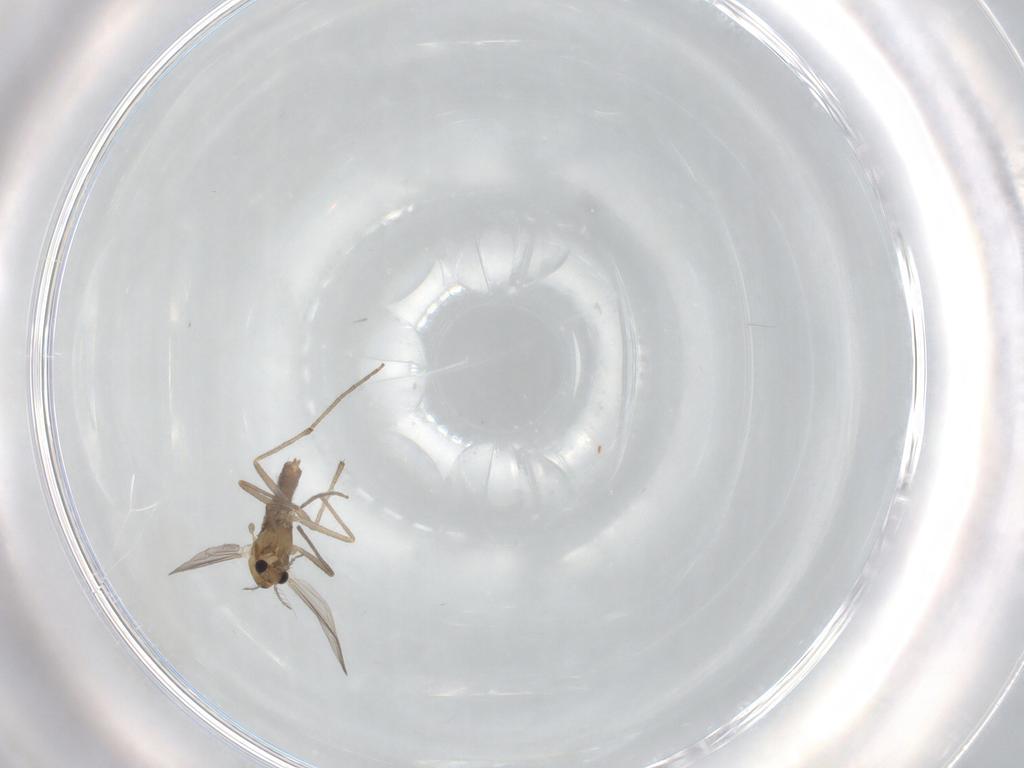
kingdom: Animalia
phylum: Arthropoda
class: Insecta
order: Diptera
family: Chironomidae
